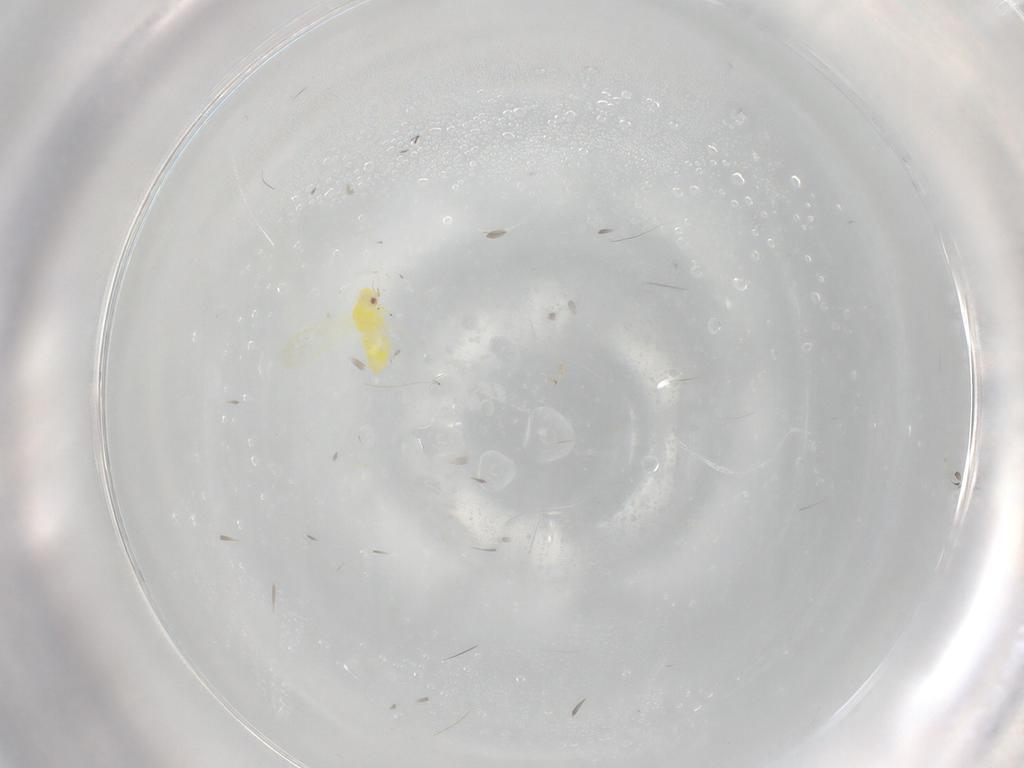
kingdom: Animalia
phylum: Arthropoda
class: Insecta
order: Hemiptera
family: Aleyrodidae
